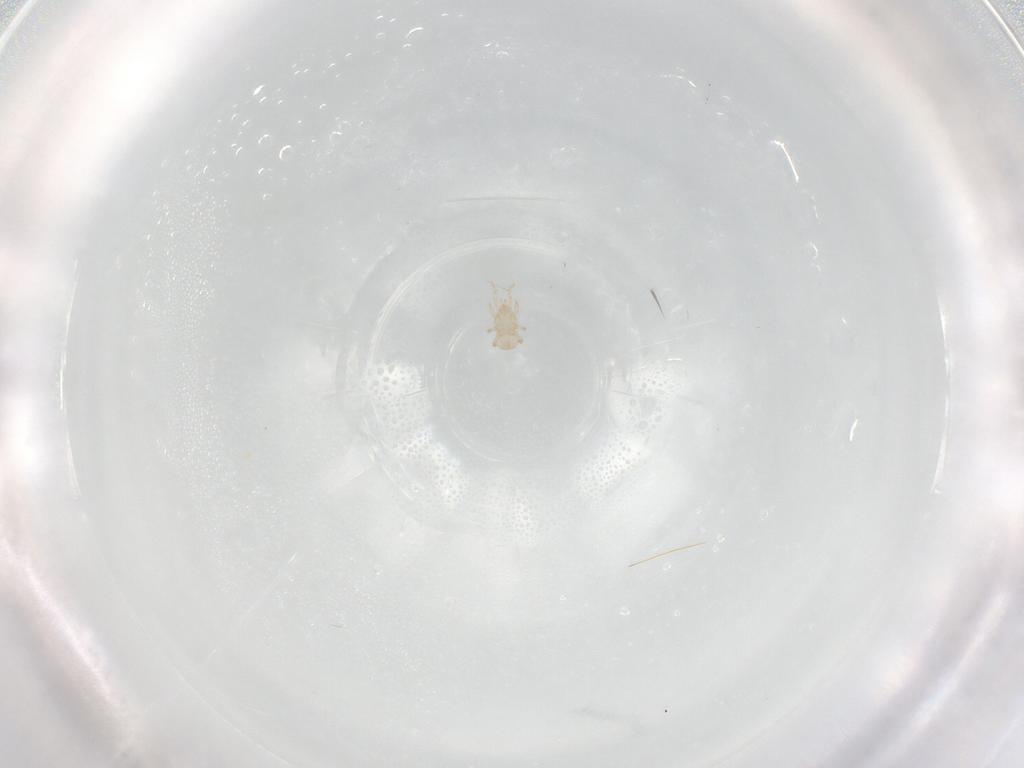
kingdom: Animalia
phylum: Arthropoda
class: Arachnida
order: Mesostigmata
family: Digamasellidae
